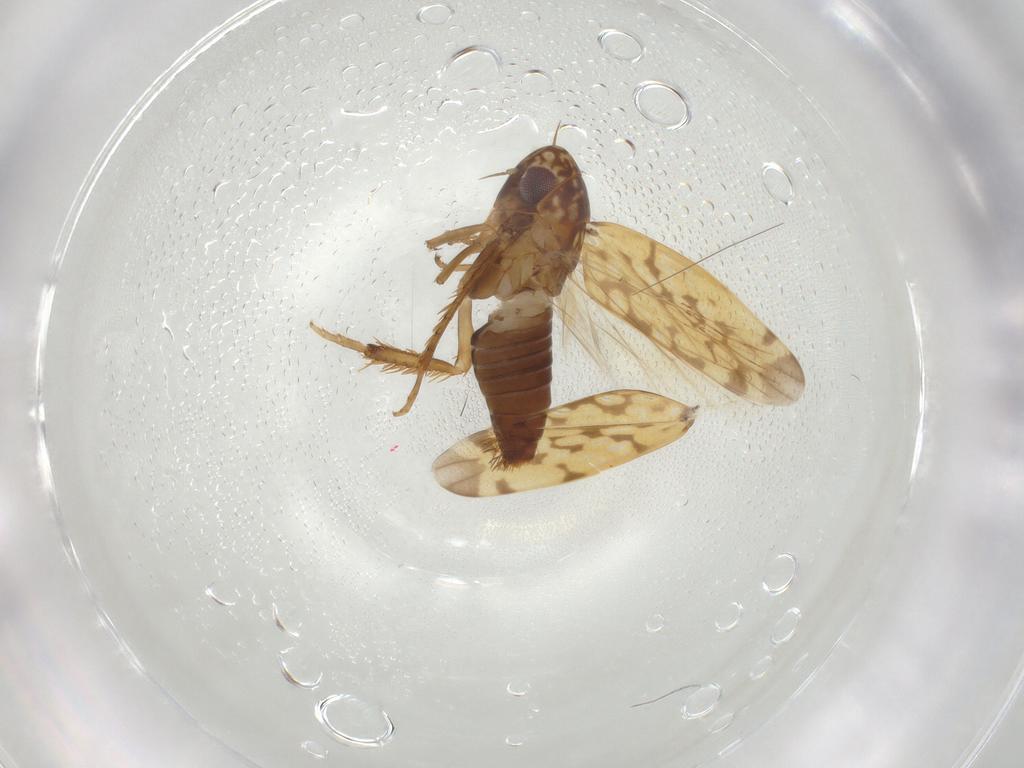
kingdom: Animalia
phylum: Arthropoda
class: Insecta
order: Hemiptera
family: Cicadellidae
